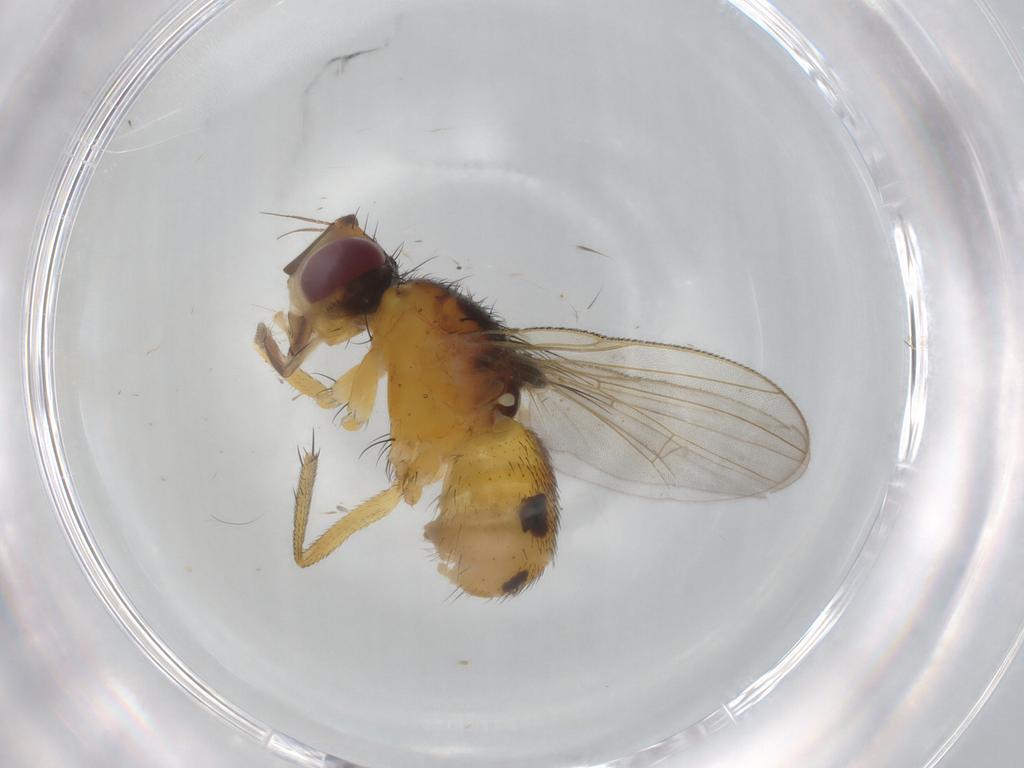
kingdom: Animalia
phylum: Arthropoda
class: Insecta
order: Diptera
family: Muscidae
